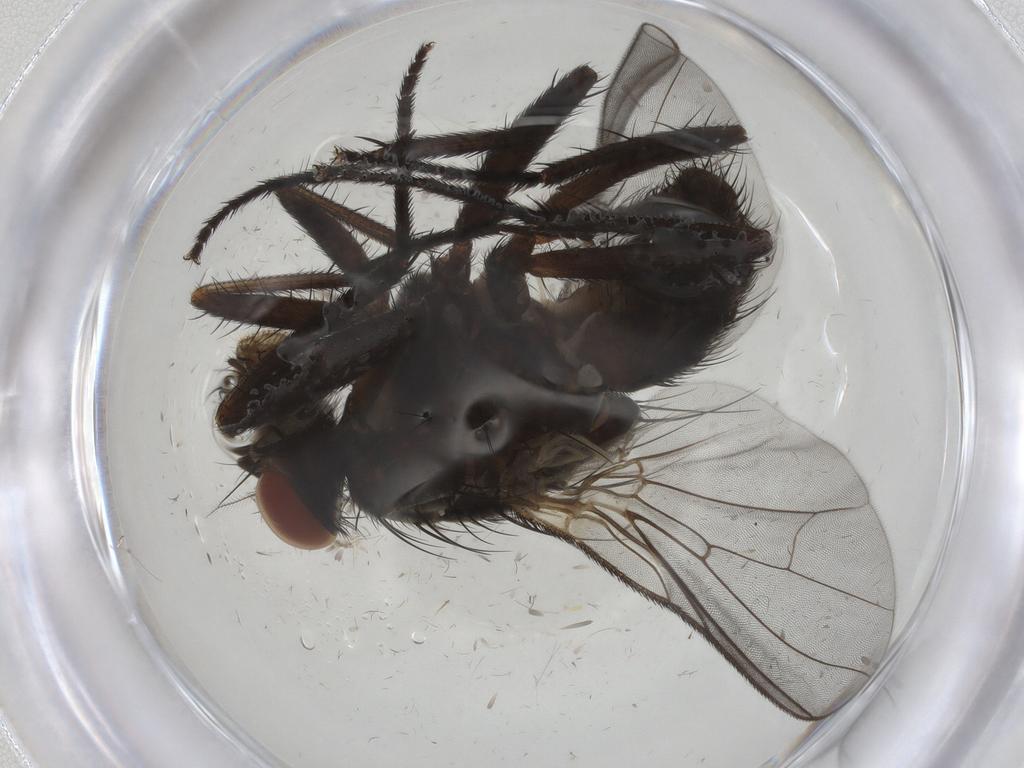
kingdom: Animalia
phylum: Arthropoda
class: Insecta
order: Diptera
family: Anthomyiidae
